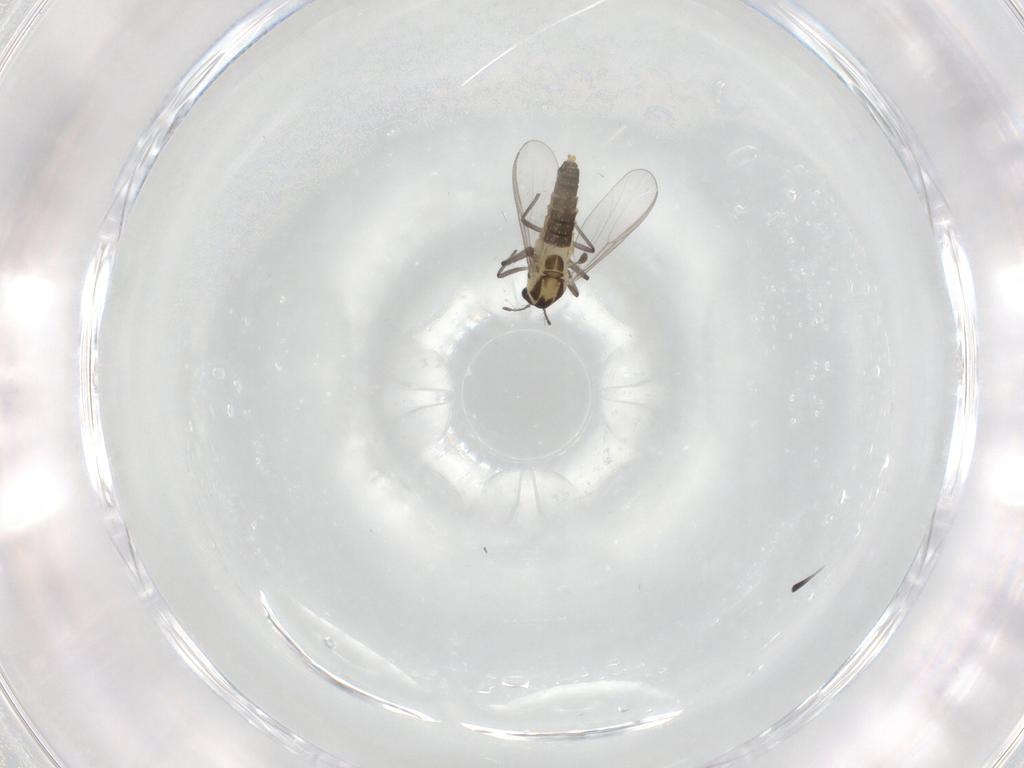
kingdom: Animalia
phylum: Arthropoda
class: Insecta
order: Diptera
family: Chironomidae
